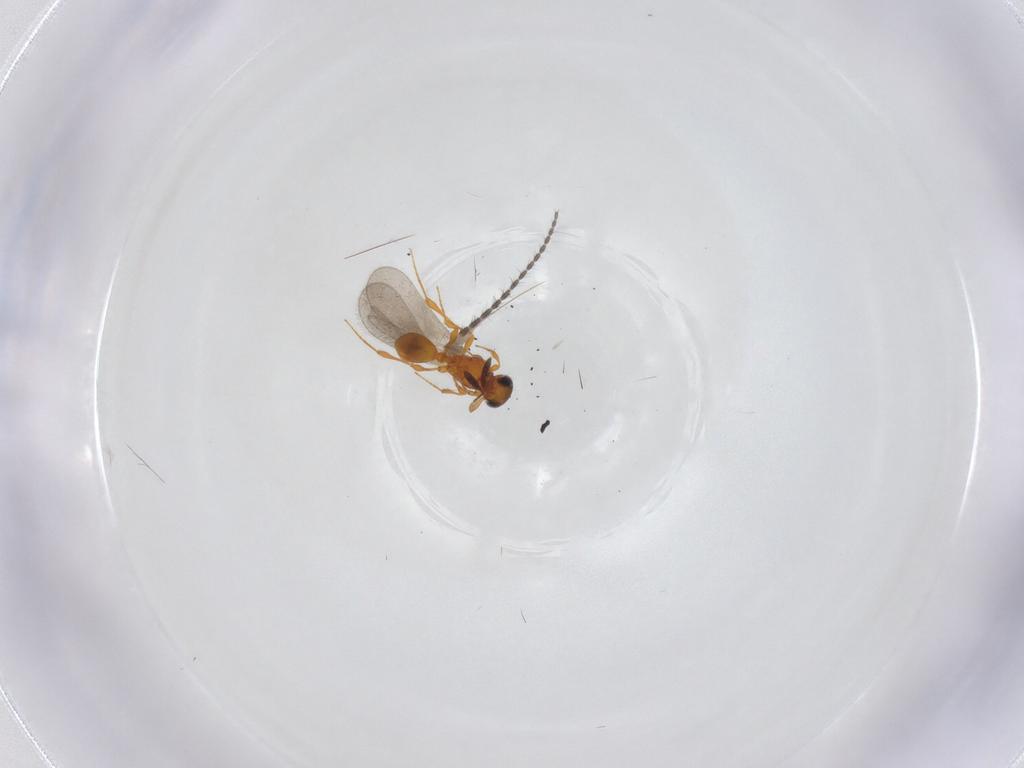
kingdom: Animalia
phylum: Arthropoda
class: Insecta
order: Hymenoptera
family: Platygastridae
